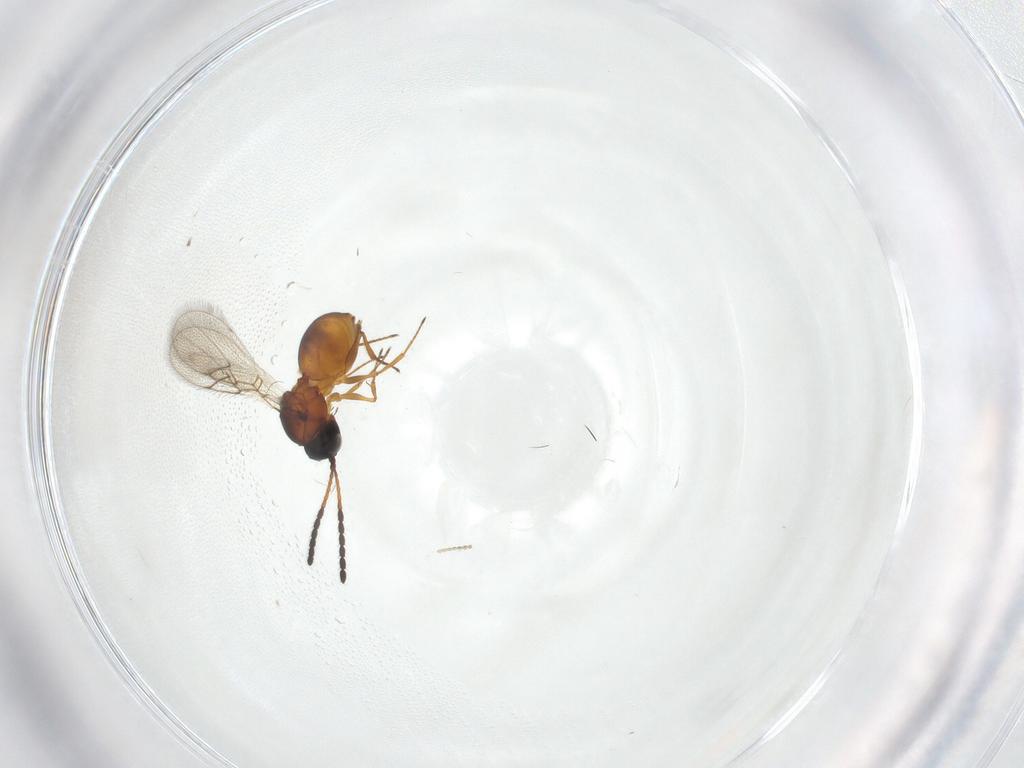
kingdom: Animalia
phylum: Arthropoda
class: Insecta
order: Hymenoptera
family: Figitidae
